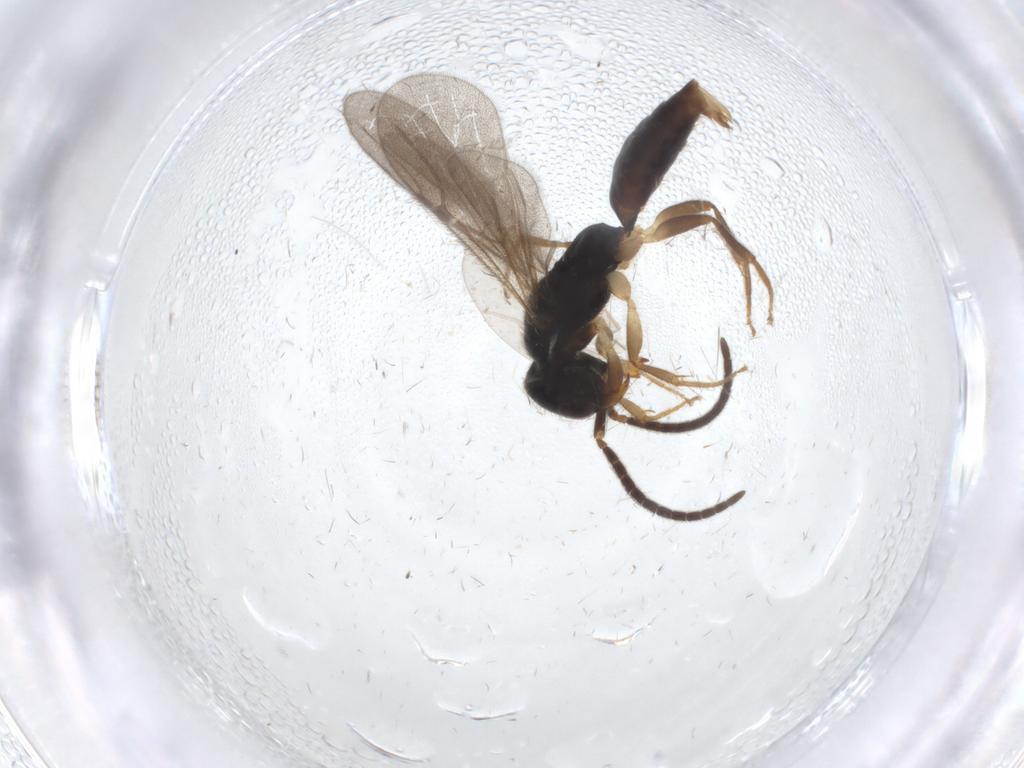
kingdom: Animalia
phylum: Arthropoda
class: Insecta
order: Hymenoptera
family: Bethylidae
